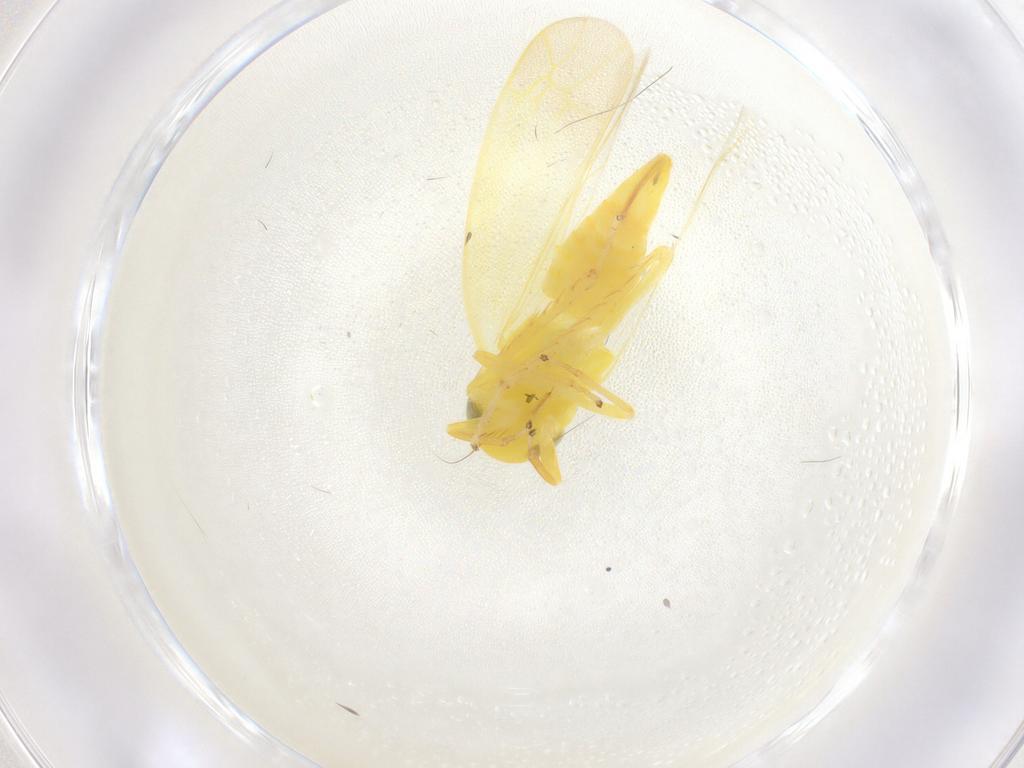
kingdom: Animalia
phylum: Arthropoda
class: Insecta
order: Hemiptera
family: Cicadellidae
